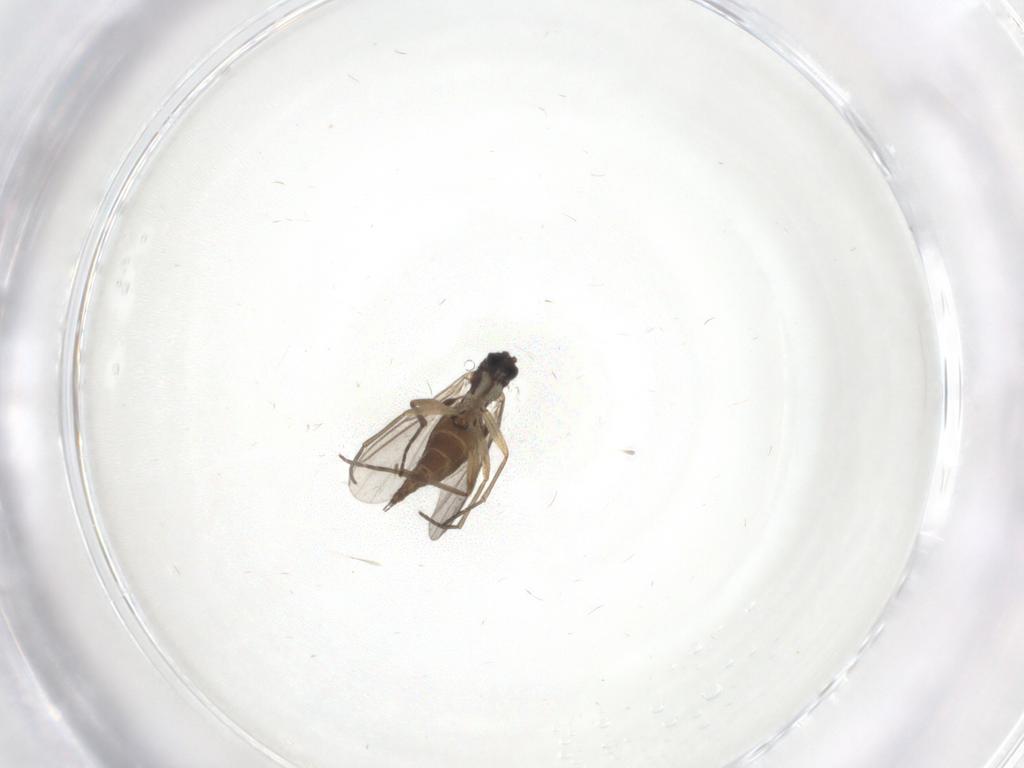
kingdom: Animalia
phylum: Arthropoda
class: Insecta
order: Diptera
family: Sciaridae
